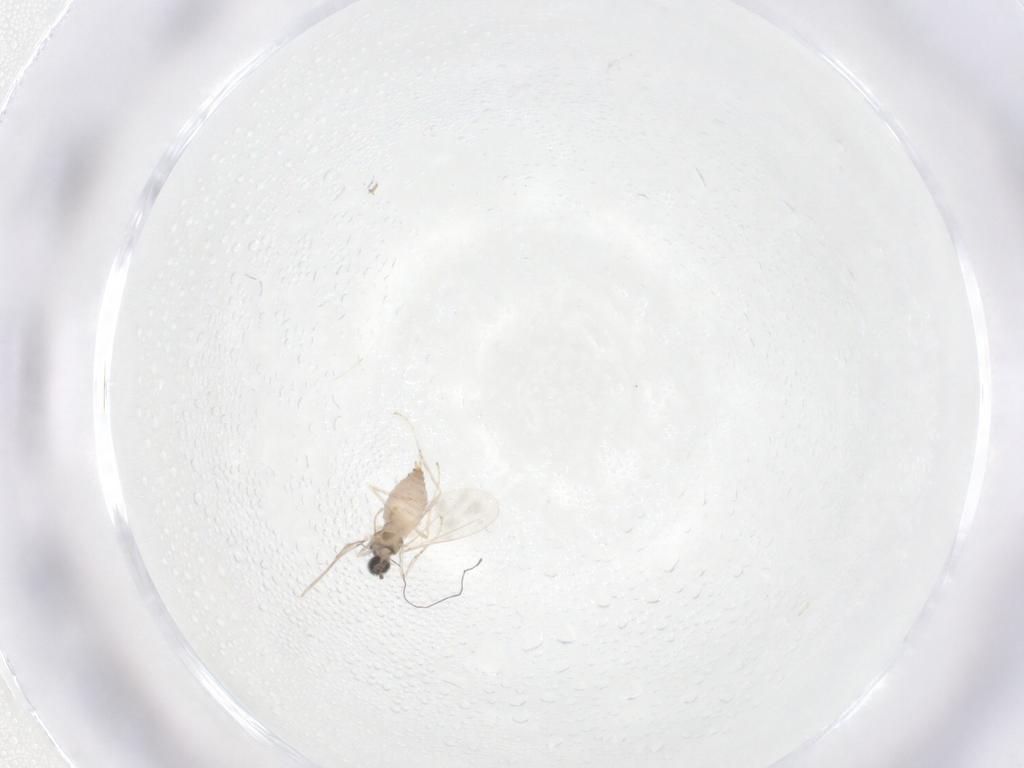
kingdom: Animalia
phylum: Arthropoda
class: Insecta
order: Diptera
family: Cecidomyiidae
